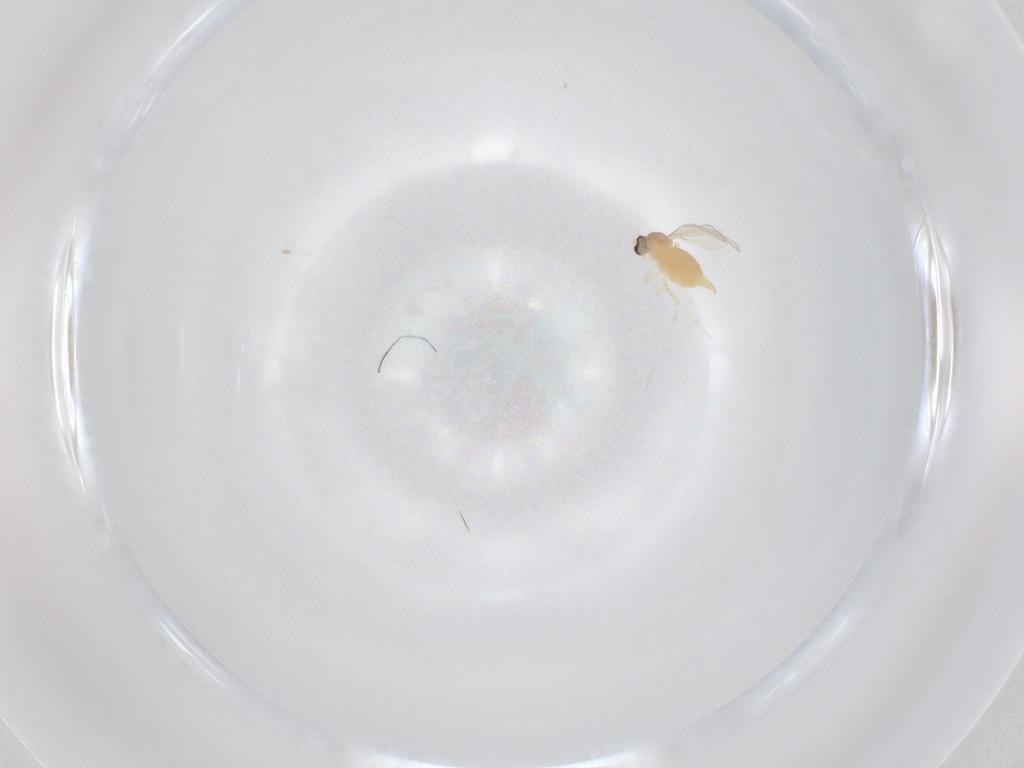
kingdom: Animalia
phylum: Arthropoda
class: Insecta
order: Diptera
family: Cecidomyiidae
